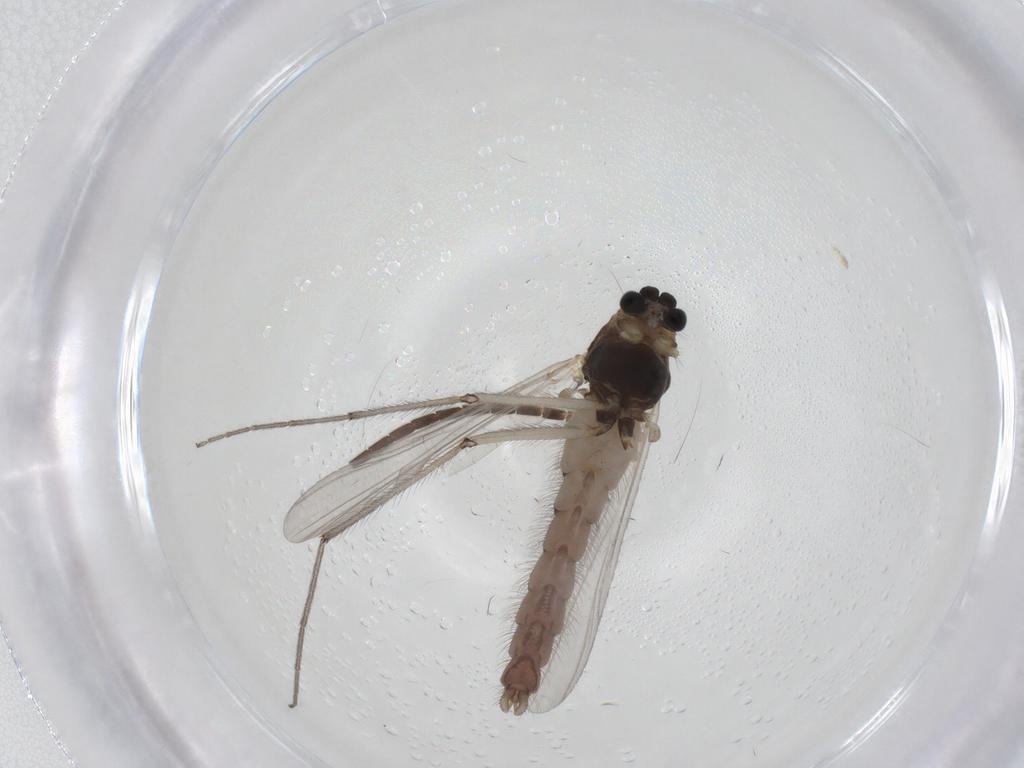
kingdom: Animalia
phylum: Arthropoda
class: Insecta
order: Diptera
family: Chironomidae
